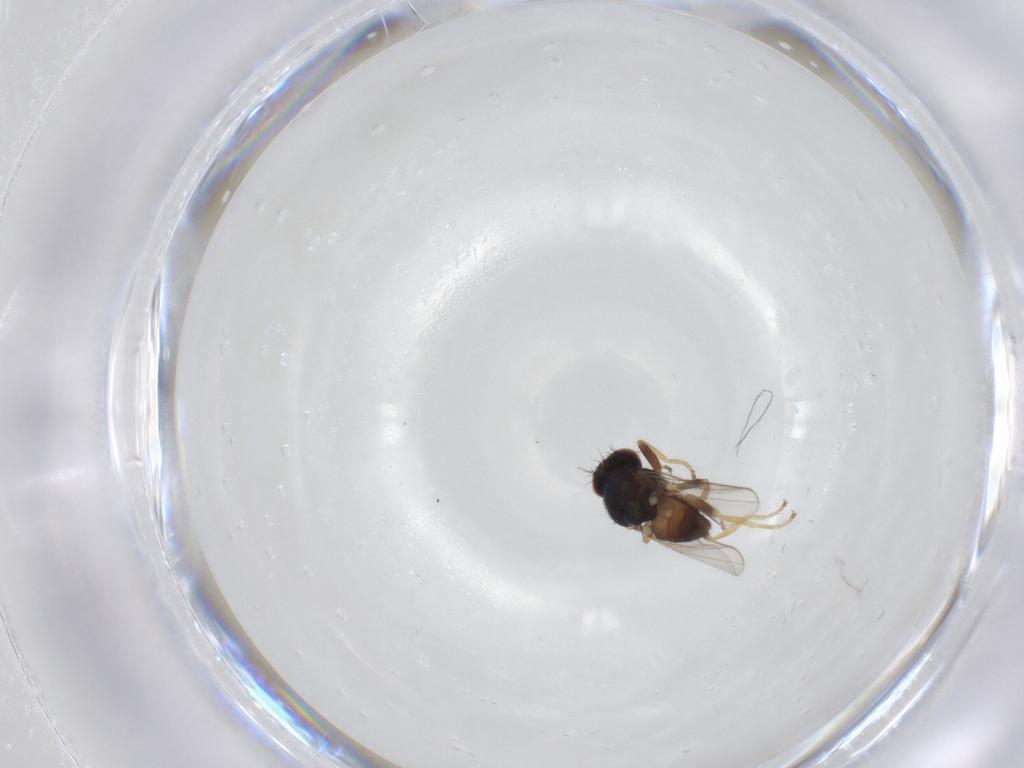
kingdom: Animalia
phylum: Arthropoda
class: Insecta
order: Diptera
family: Chloropidae
